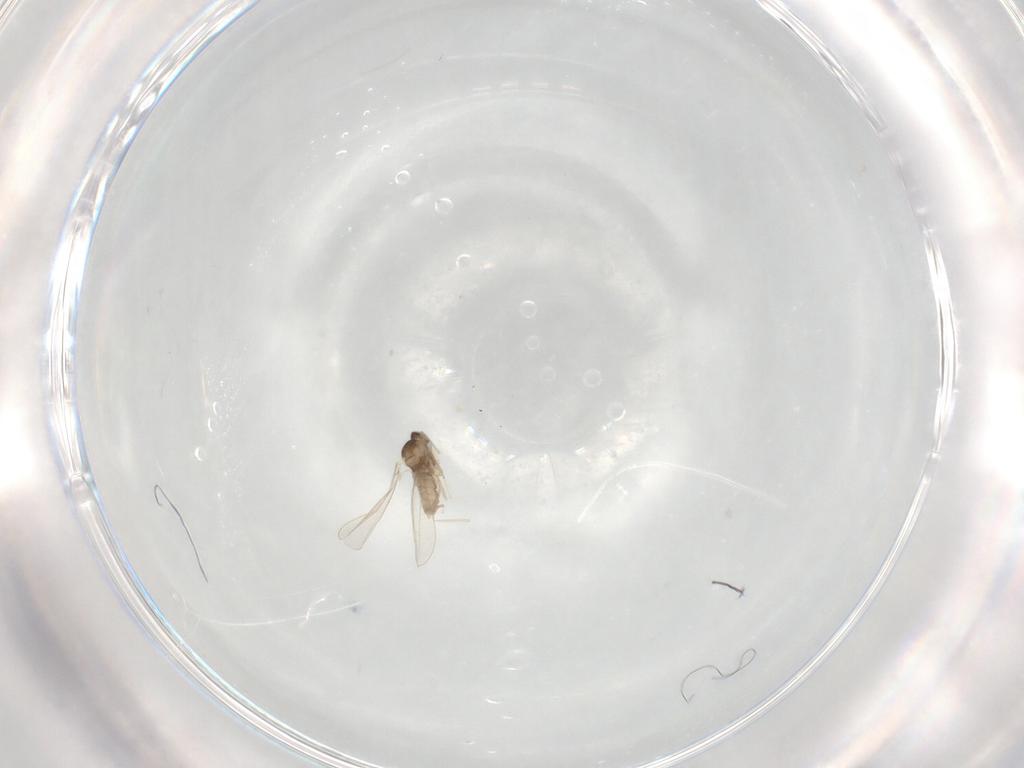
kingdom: Animalia
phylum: Arthropoda
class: Insecta
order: Diptera
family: Cecidomyiidae
